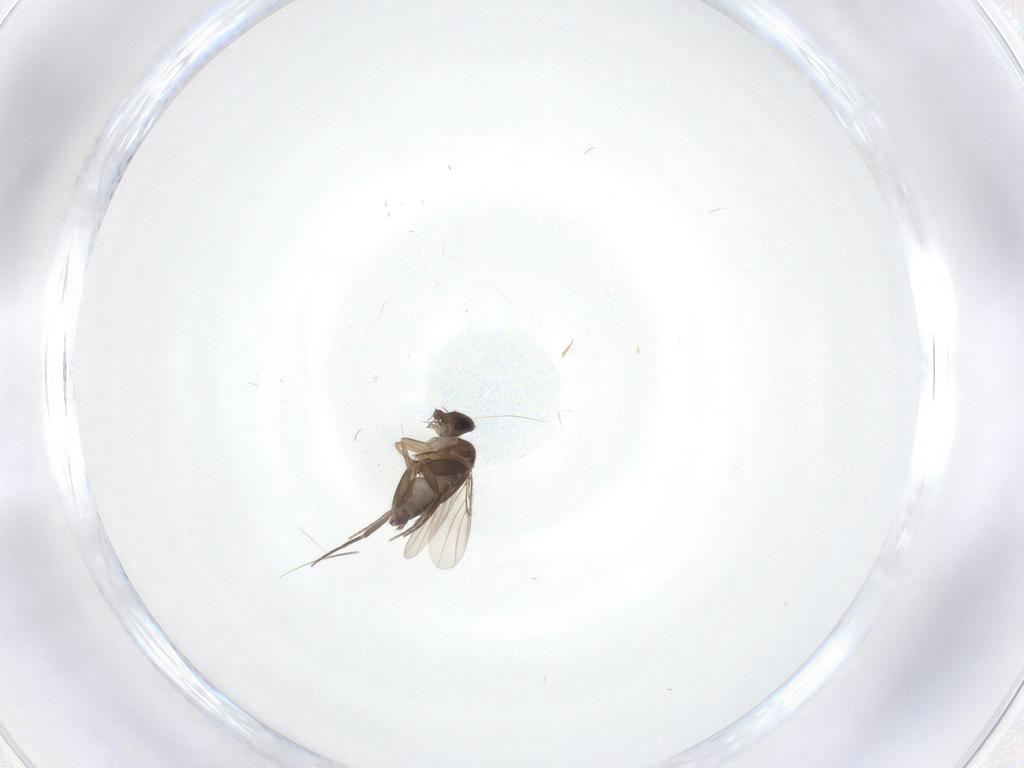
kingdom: Animalia
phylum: Arthropoda
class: Insecta
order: Diptera
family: Phoridae
